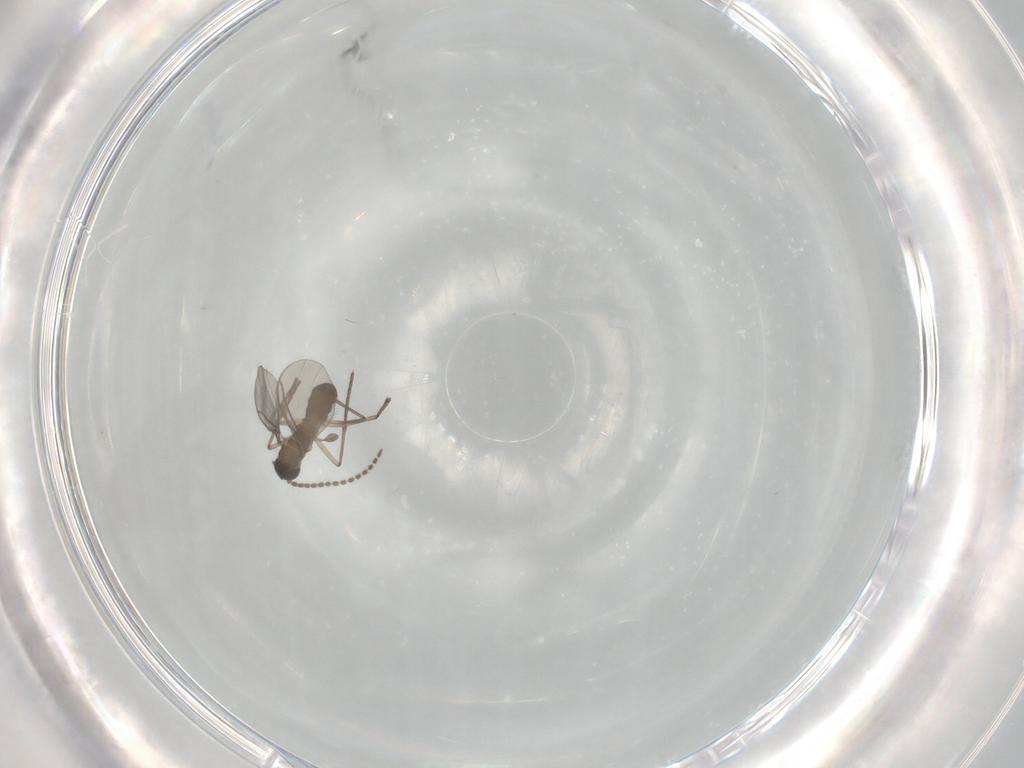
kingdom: Animalia
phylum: Arthropoda
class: Insecta
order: Diptera
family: Sciaridae
